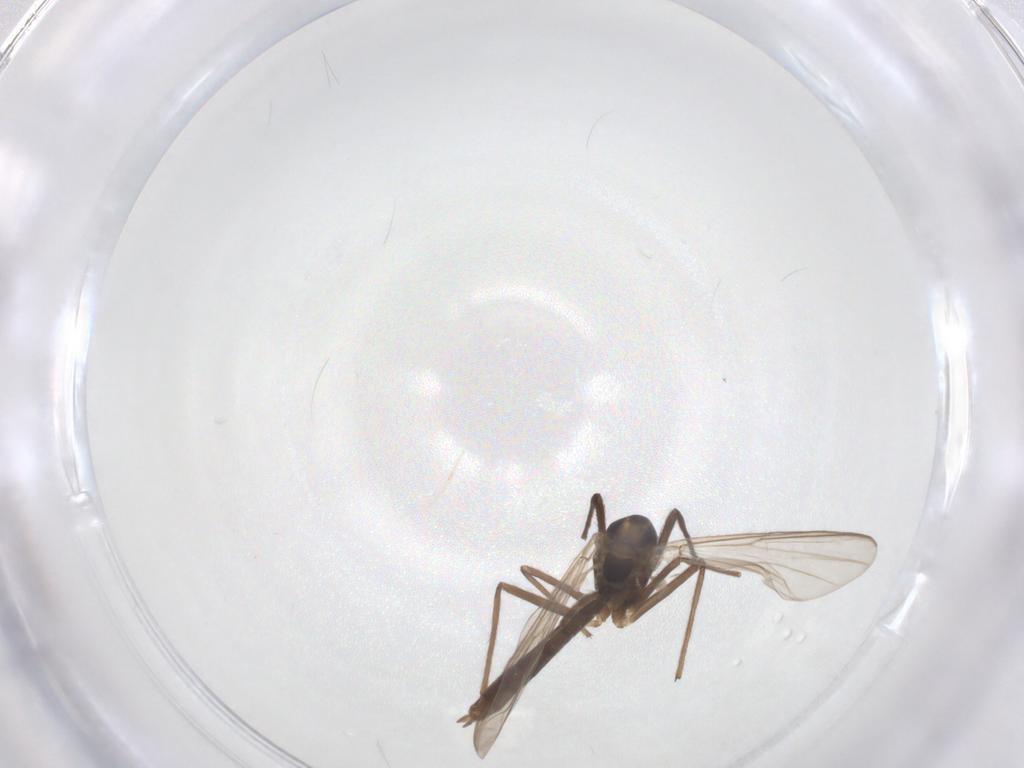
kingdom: Animalia
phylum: Arthropoda
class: Insecta
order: Diptera
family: Chironomidae
